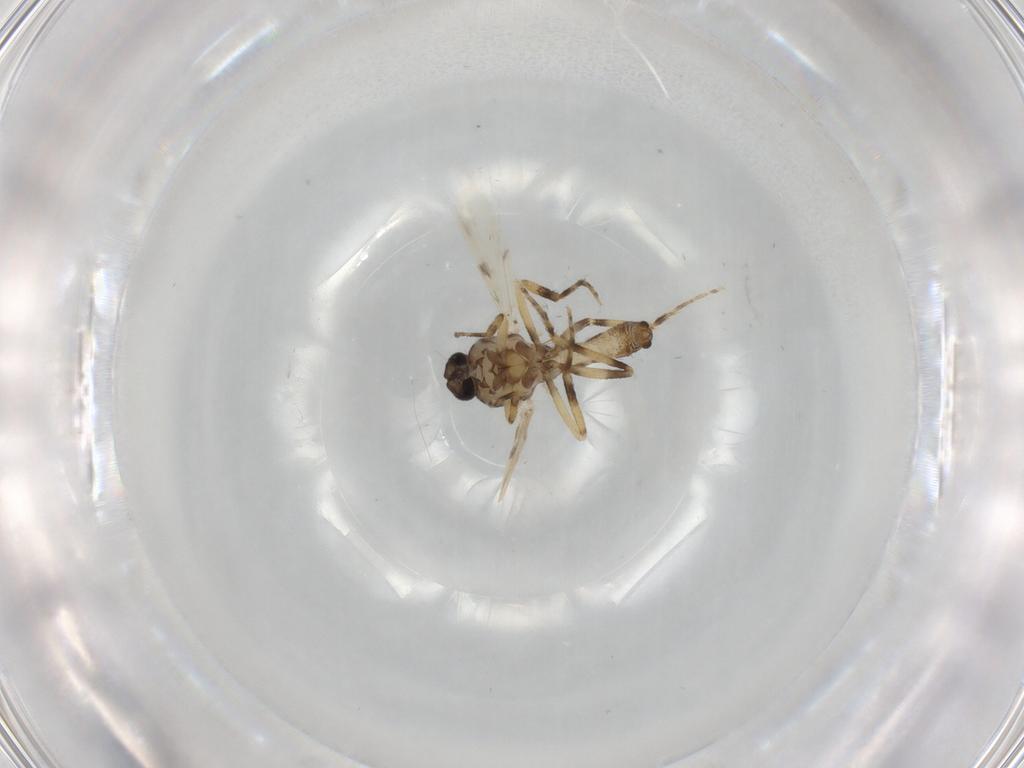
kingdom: Animalia
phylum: Arthropoda
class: Insecta
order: Diptera
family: Ceratopogonidae
